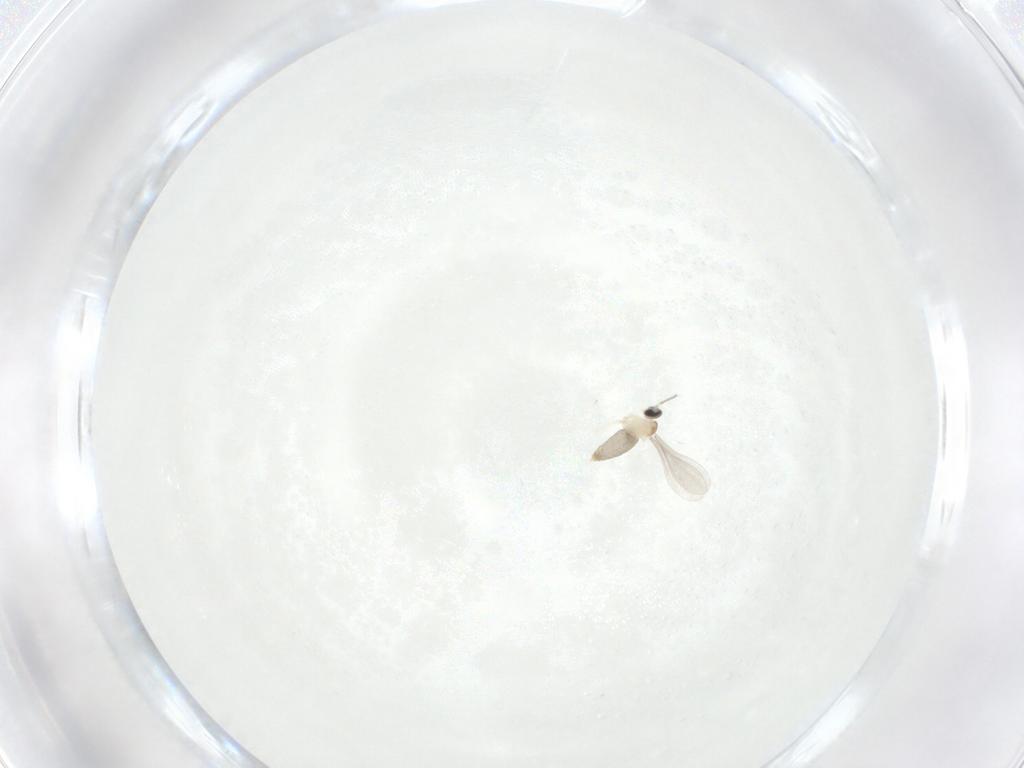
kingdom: Animalia
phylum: Arthropoda
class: Insecta
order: Diptera
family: Cecidomyiidae
